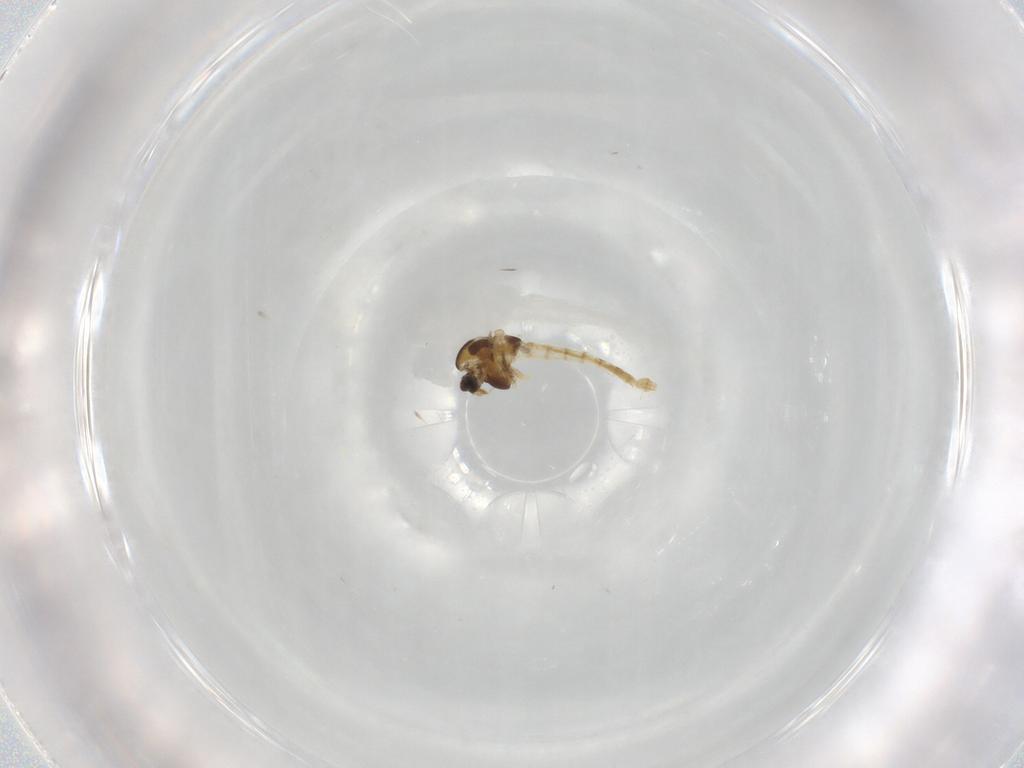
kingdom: Animalia
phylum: Arthropoda
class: Insecta
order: Diptera
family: Chironomidae
